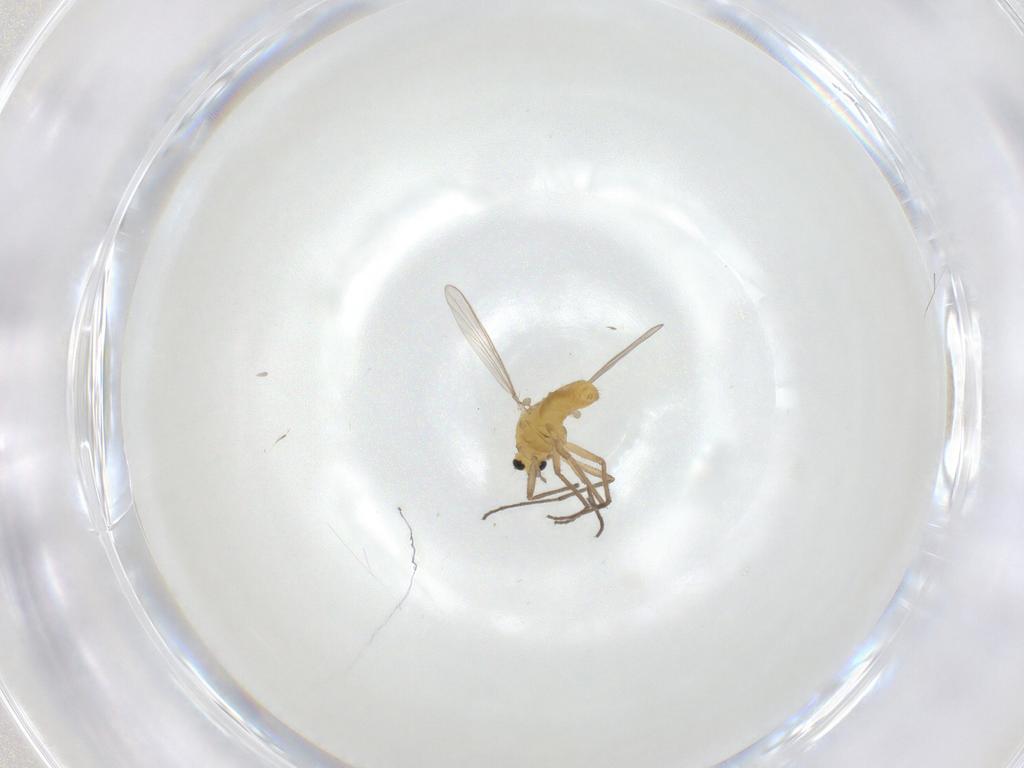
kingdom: Animalia
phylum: Arthropoda
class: Insecta
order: Diptera
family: Chironomidae
